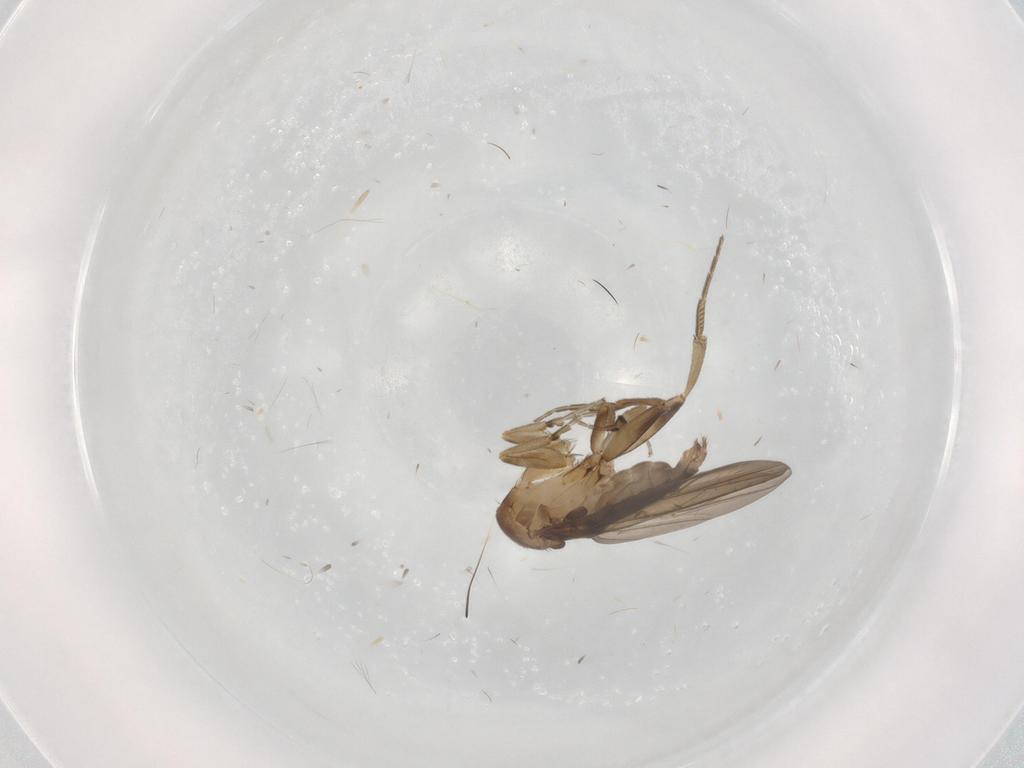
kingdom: Animalia
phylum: Arthropoda
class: Insecta
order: Diptera
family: Phoridae
